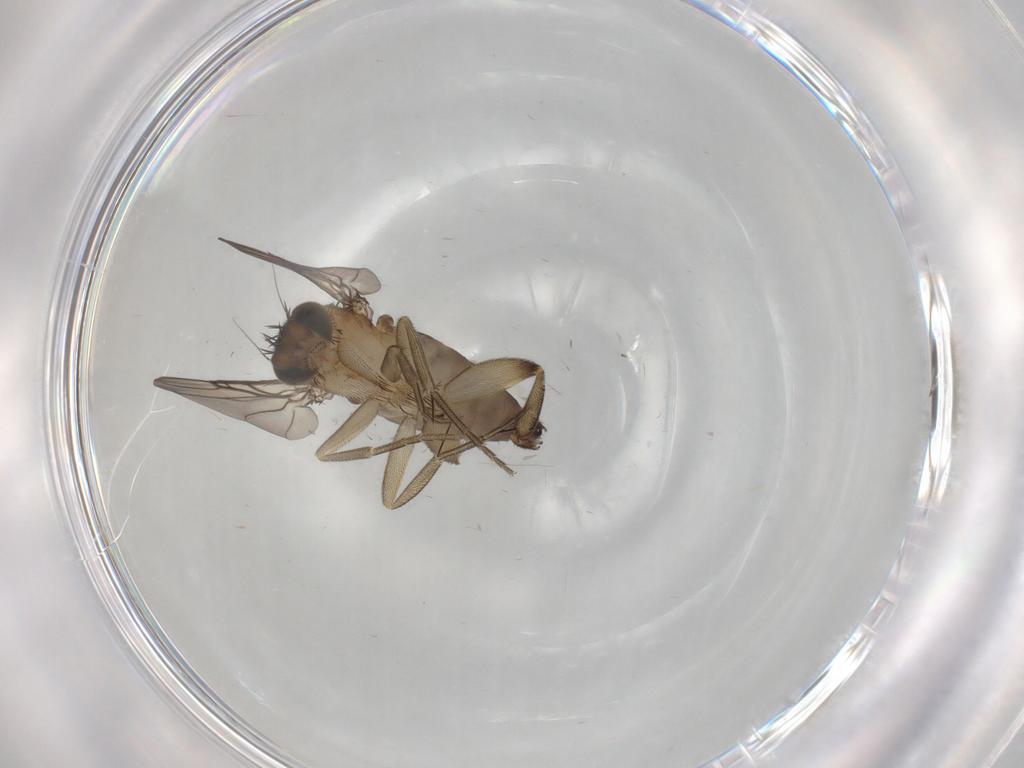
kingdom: Animalia
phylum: Arthropoda
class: Insecta
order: Diptera
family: Phoridae
